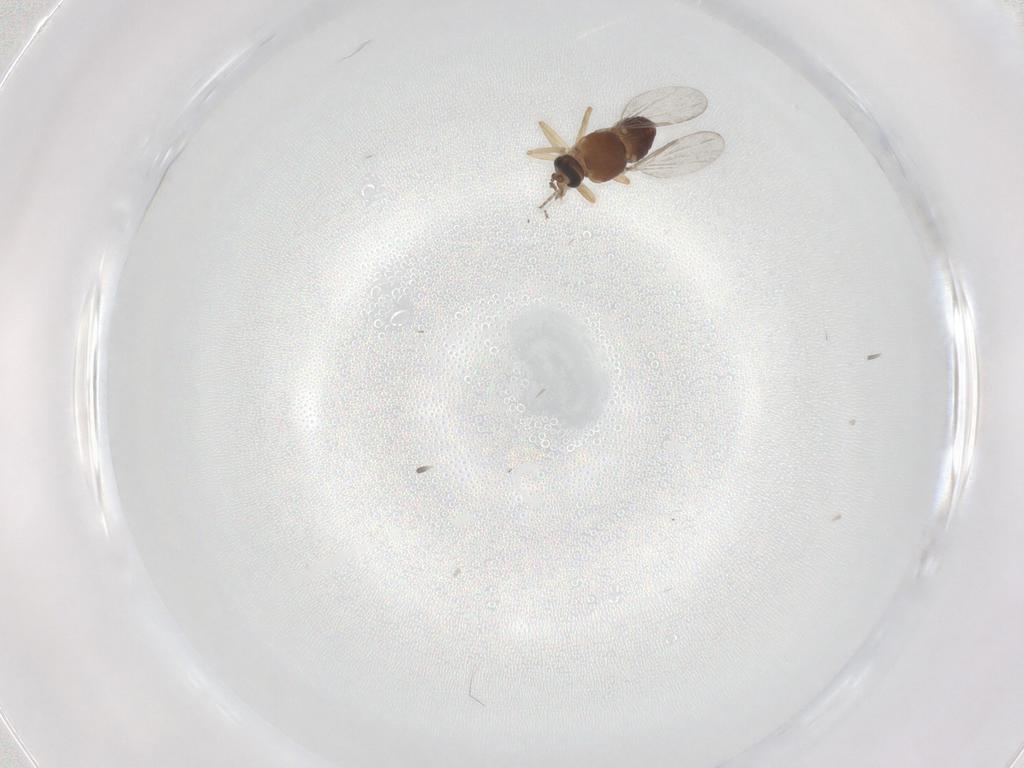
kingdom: Animalia
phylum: Arthropoda
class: Insecta
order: Diptera
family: Ceratopogonidae
